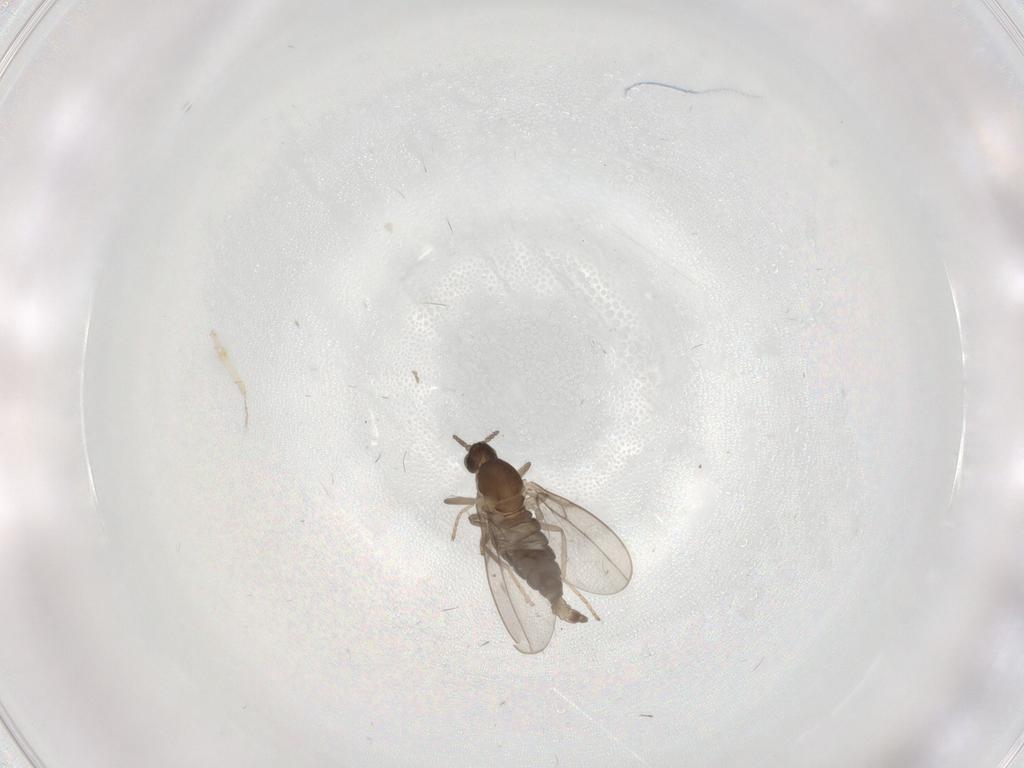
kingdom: Animalia
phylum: Arthropoda
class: Insecta
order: Diptera
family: Cecidomyiidae
